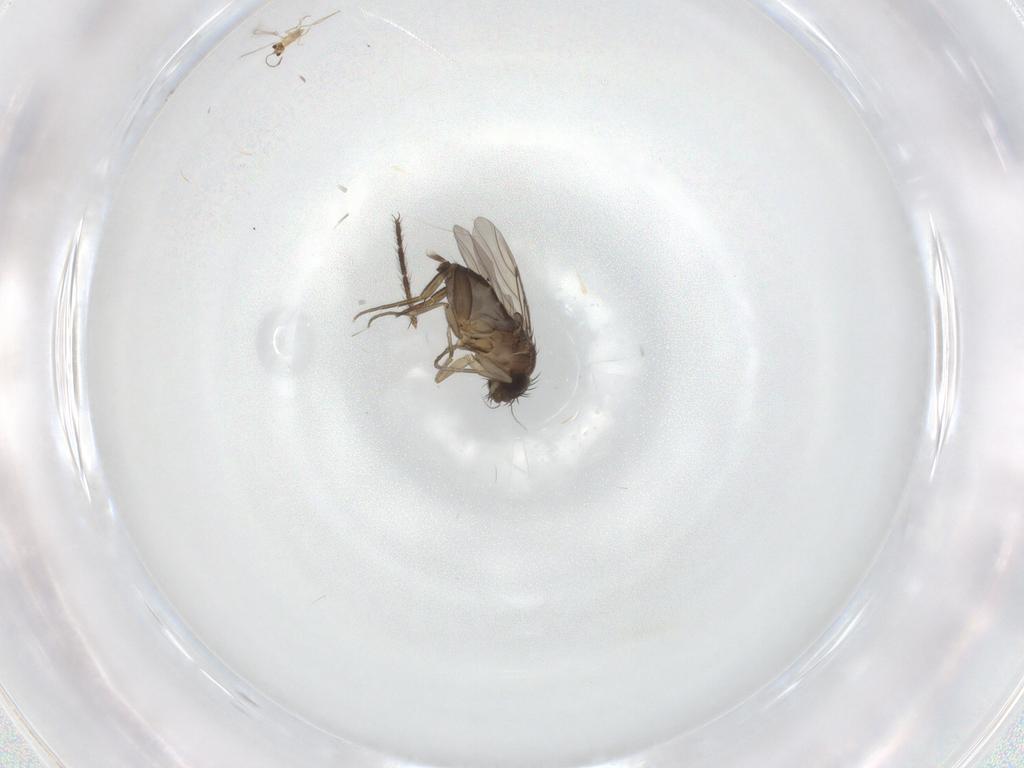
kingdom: Animalia
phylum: Arthropoda
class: Insecta
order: Diptera
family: Phoridae
